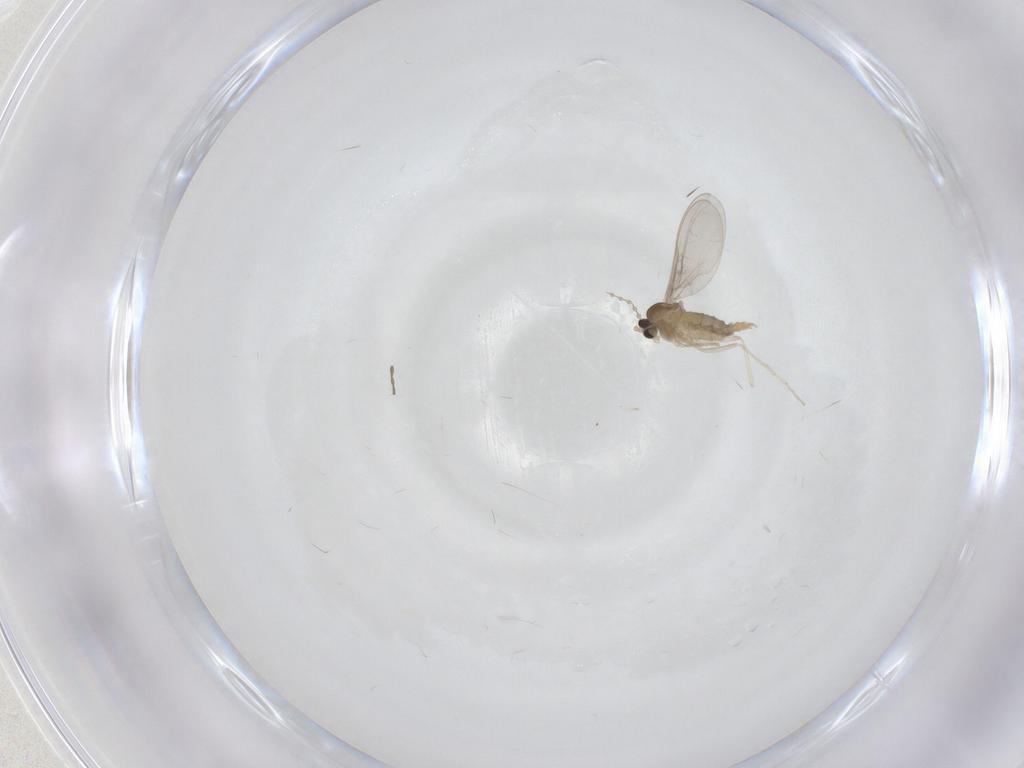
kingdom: Animalia
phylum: Arthropoda
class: Insecta
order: Diptera
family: Cecidomyiidae
